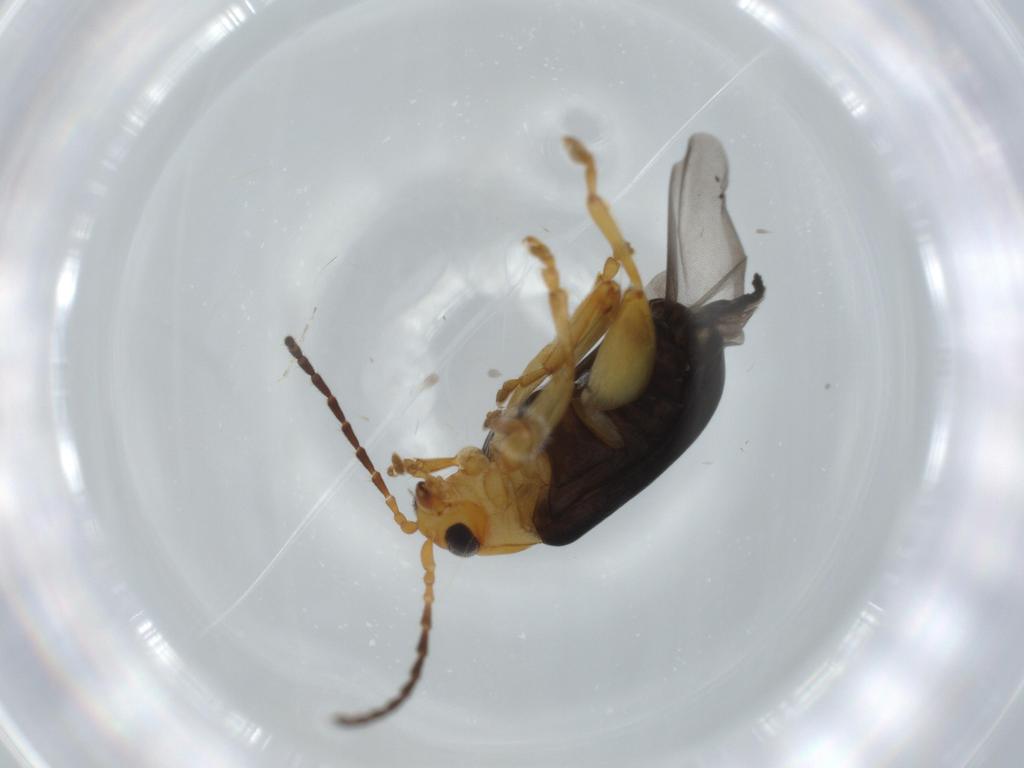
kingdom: Animalia
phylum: Arthropoda
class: Insecta
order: Coleoptera
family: Chrysomelidae
